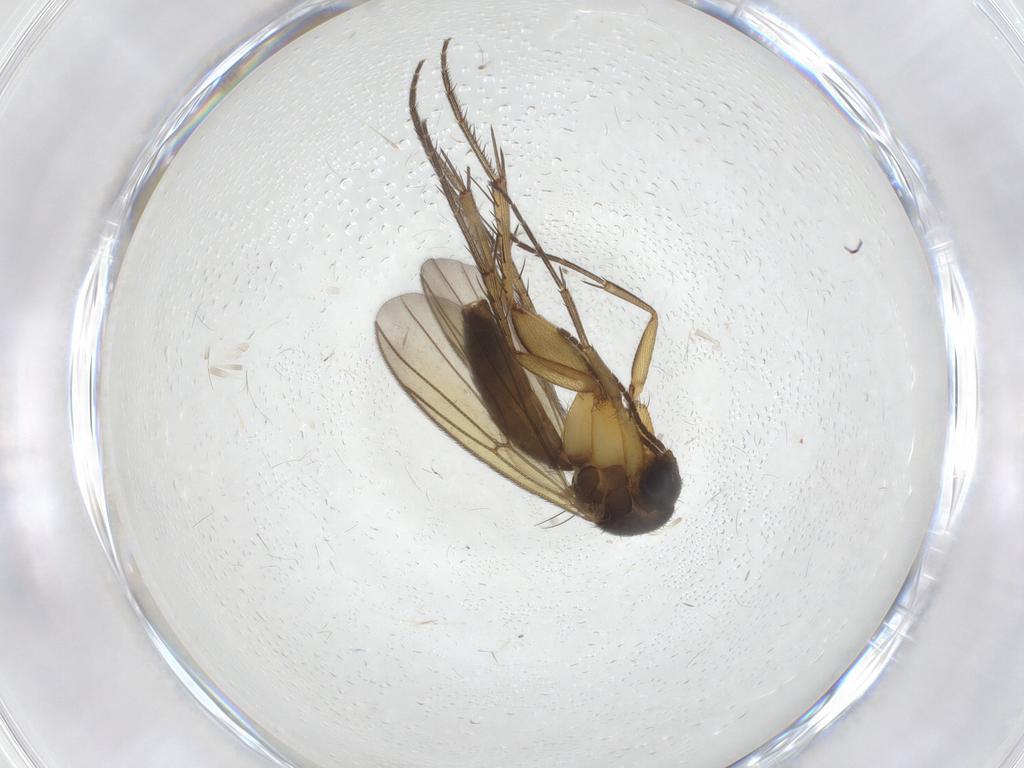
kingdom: Animalia
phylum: Arthropoda
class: Insecta
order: Diptera
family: Mycetophilidae
